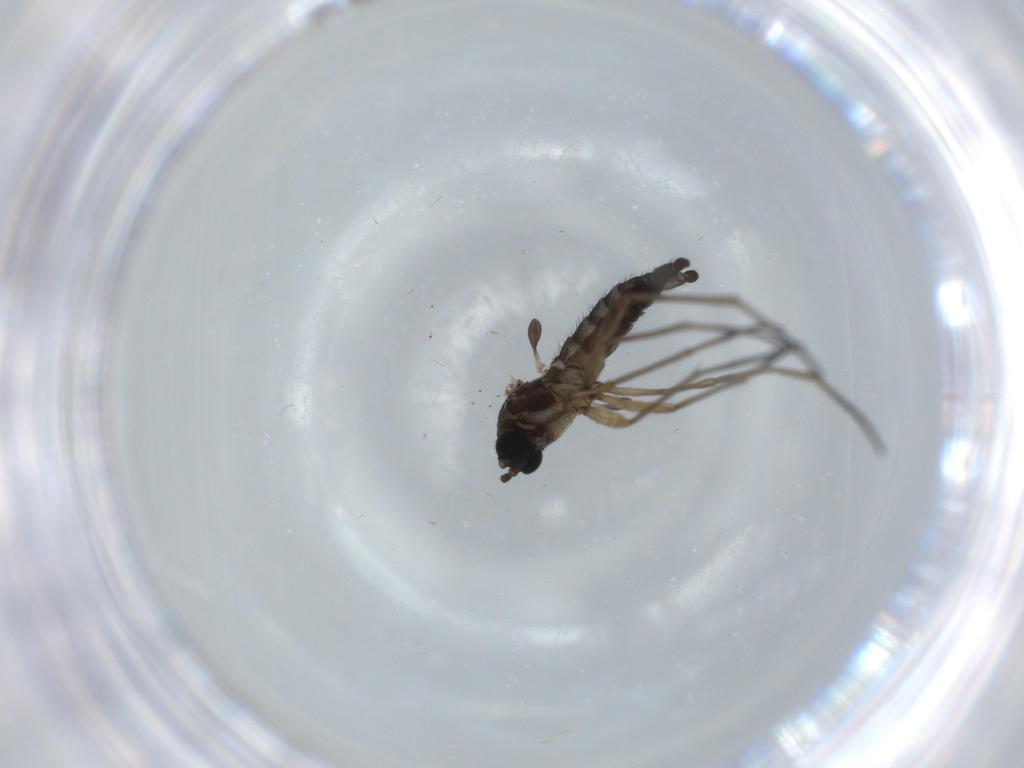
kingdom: Animalia
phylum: Arthropoda
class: Insecta
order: Diptera
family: Sciaridae
